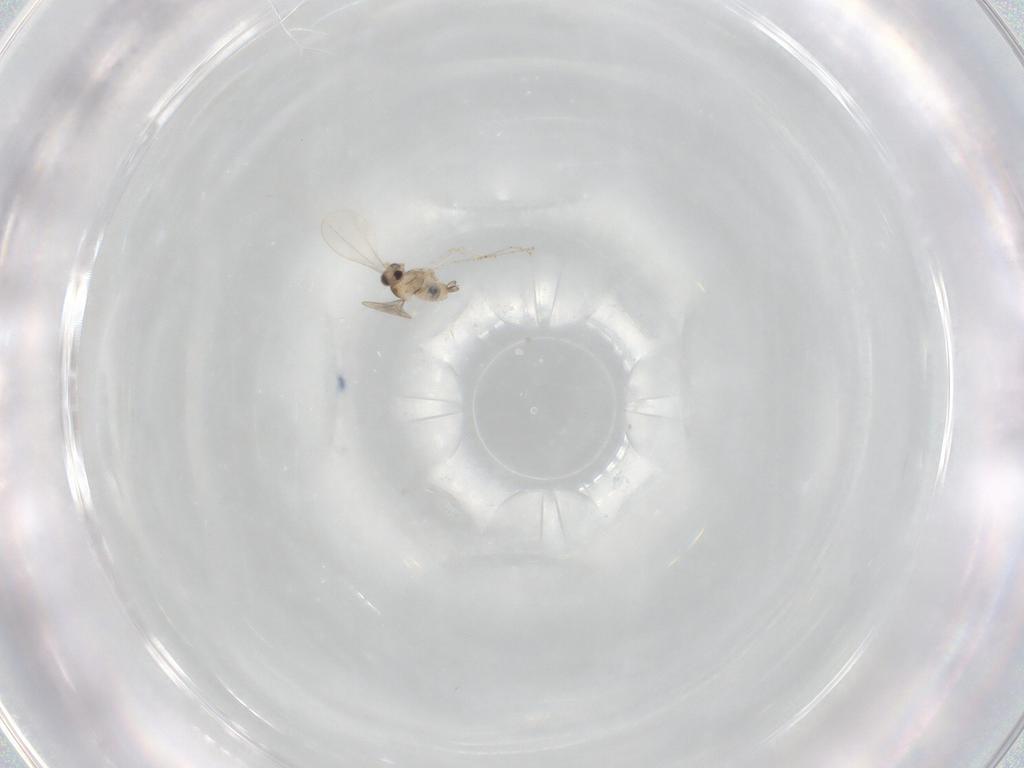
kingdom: Animalia
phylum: Arthropoda
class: Insecta
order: Diptera
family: Cecidomyiidae
